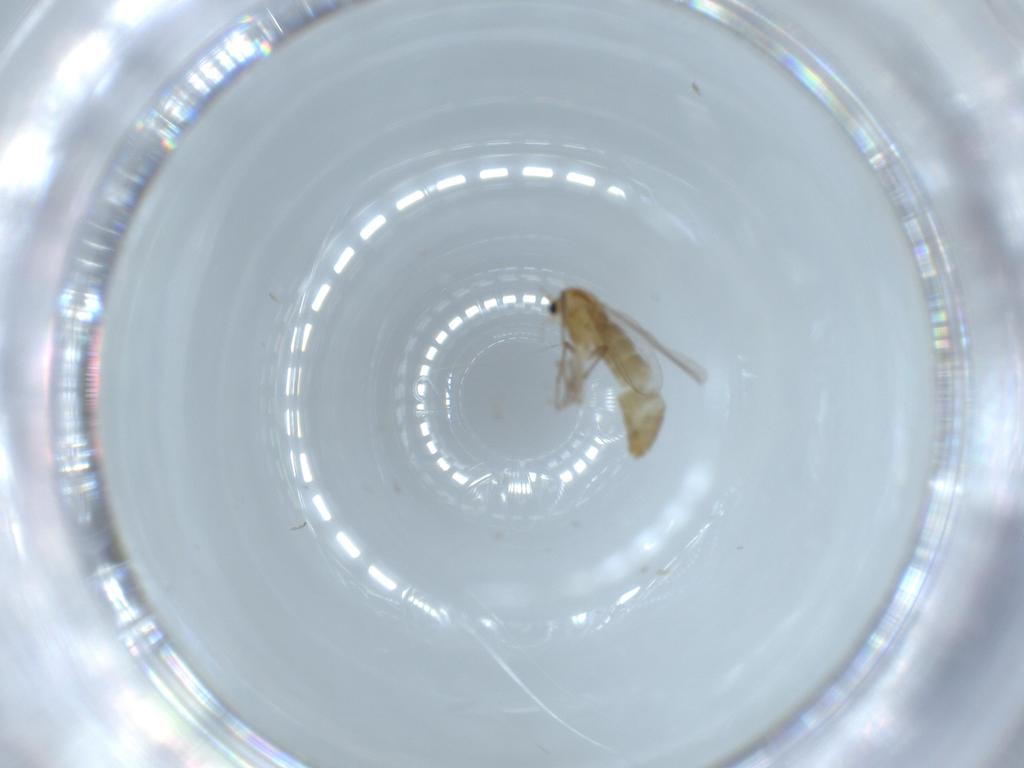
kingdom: Animalia
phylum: Arthropoda
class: Insecta
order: Diptera
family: Chironomidae
